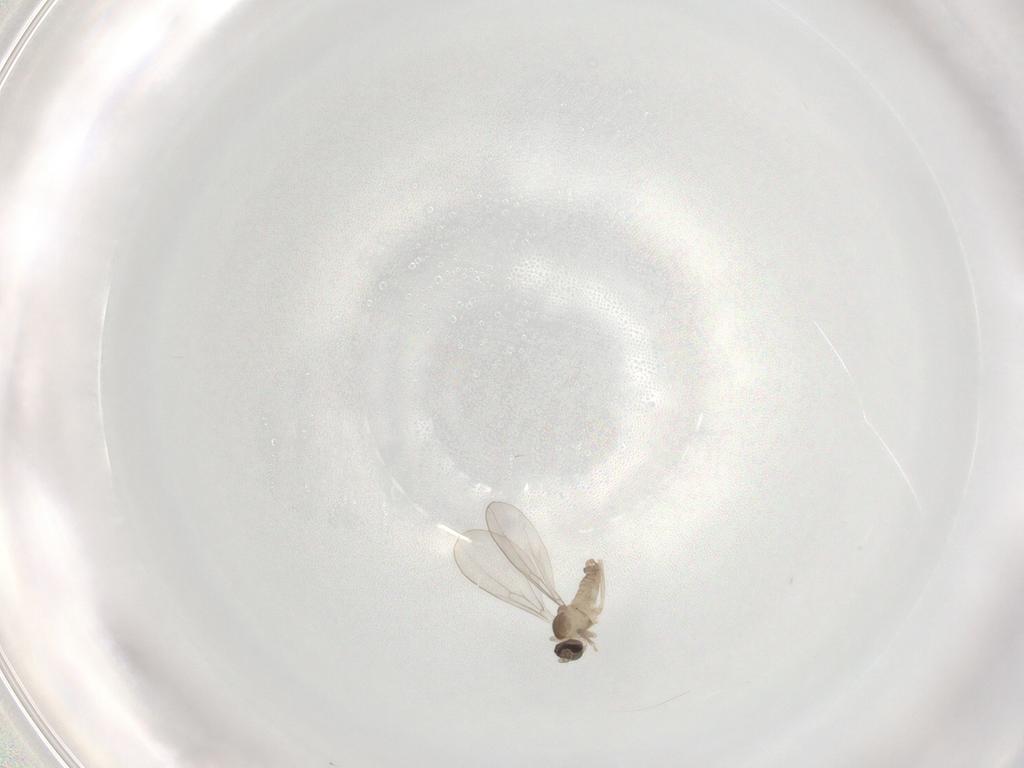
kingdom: Animalia
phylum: Arthropoda
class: Insecta
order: Diptera
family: Cecidomyiidae
